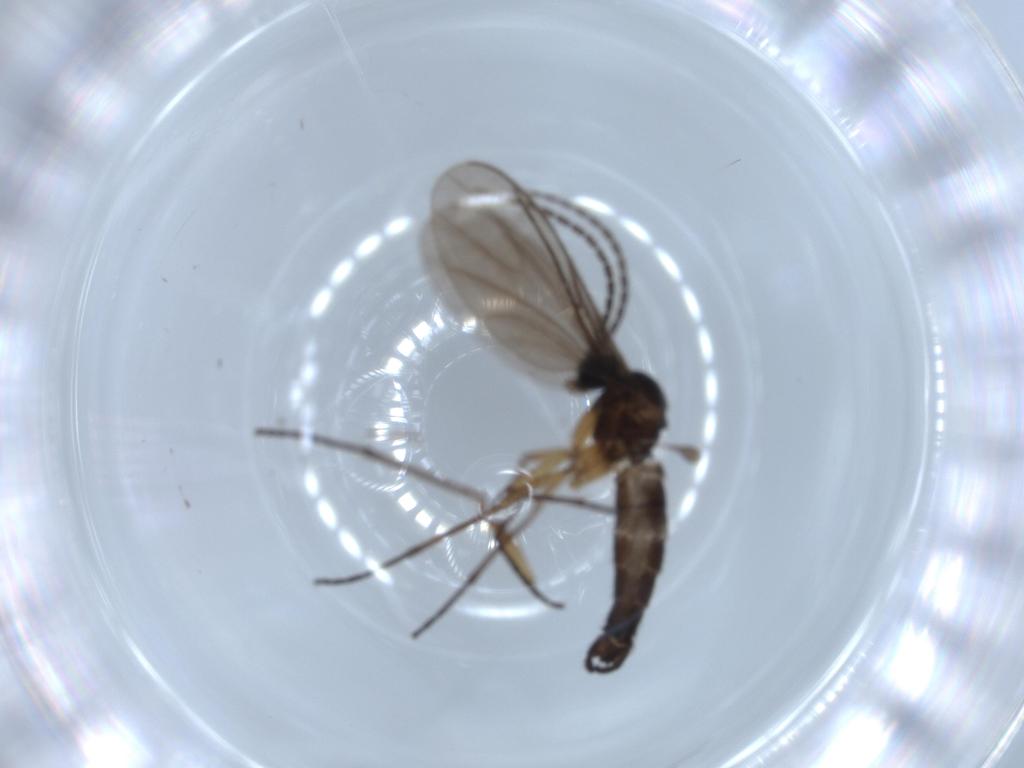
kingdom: Animalia
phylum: Arthropoda
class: Insecta
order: Diptera
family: Sciaridae
